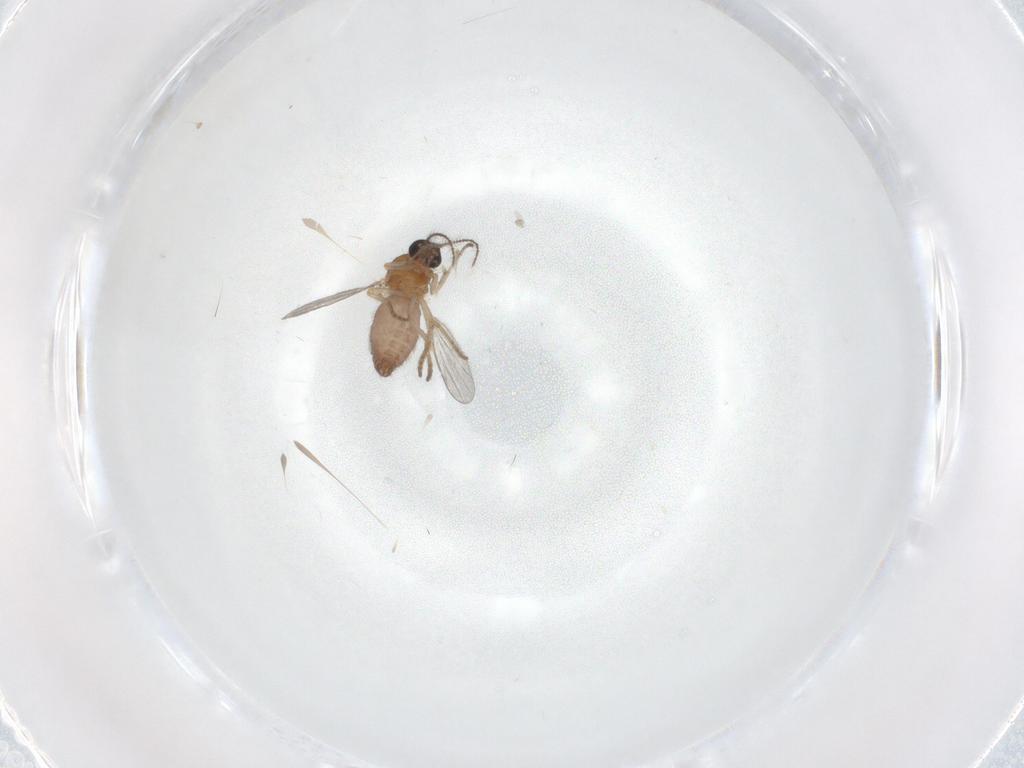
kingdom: Animalia
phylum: Arthropoda
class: Insecta
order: Diptera
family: Ceratopogonidae
